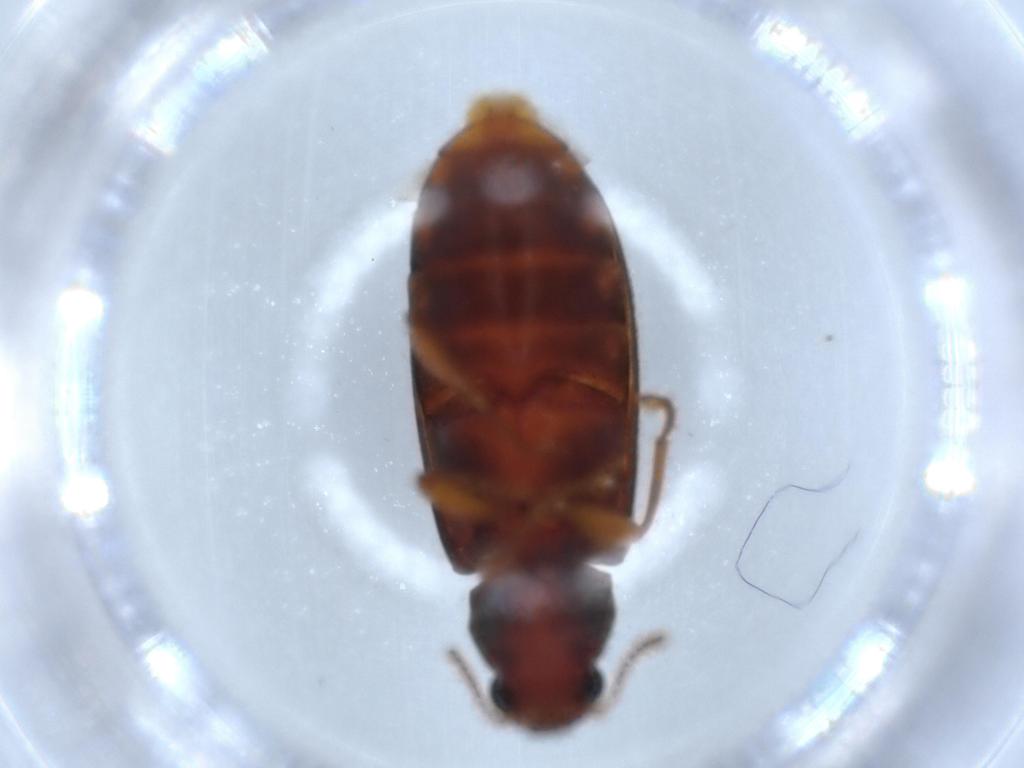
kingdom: Animalia
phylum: Arthropoda
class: Insecta
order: Coleoptera
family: Mycteridae
